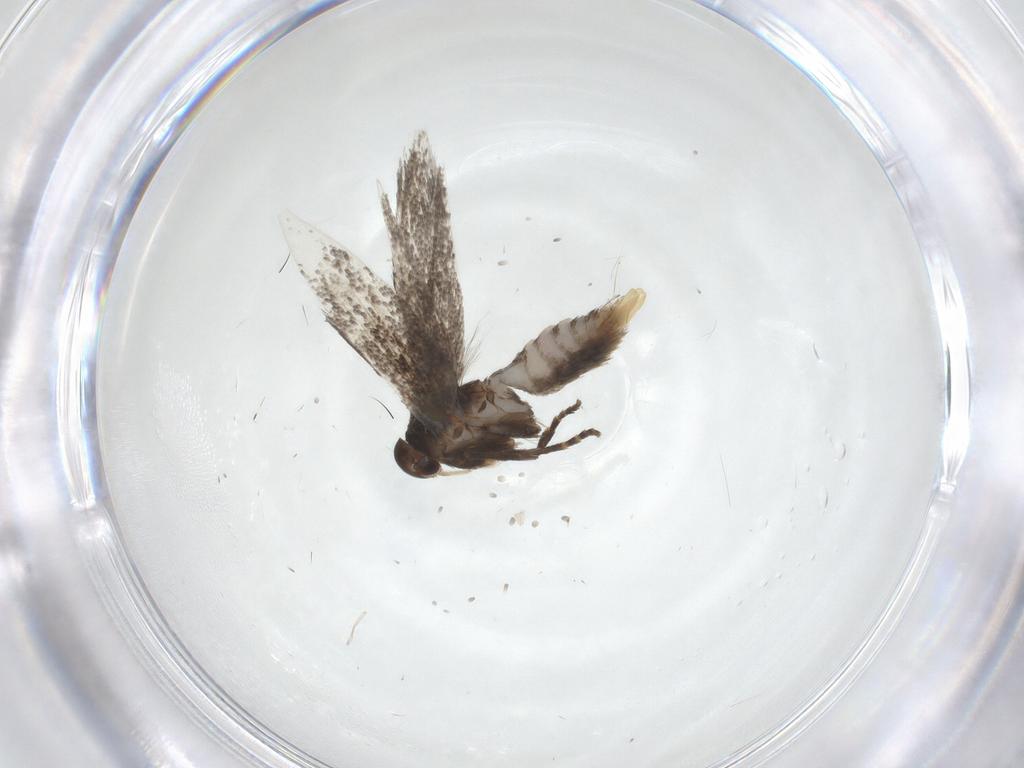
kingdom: Animalia
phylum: Arthropoda
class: Insecta
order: Lepidoptera
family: Elachistidae
